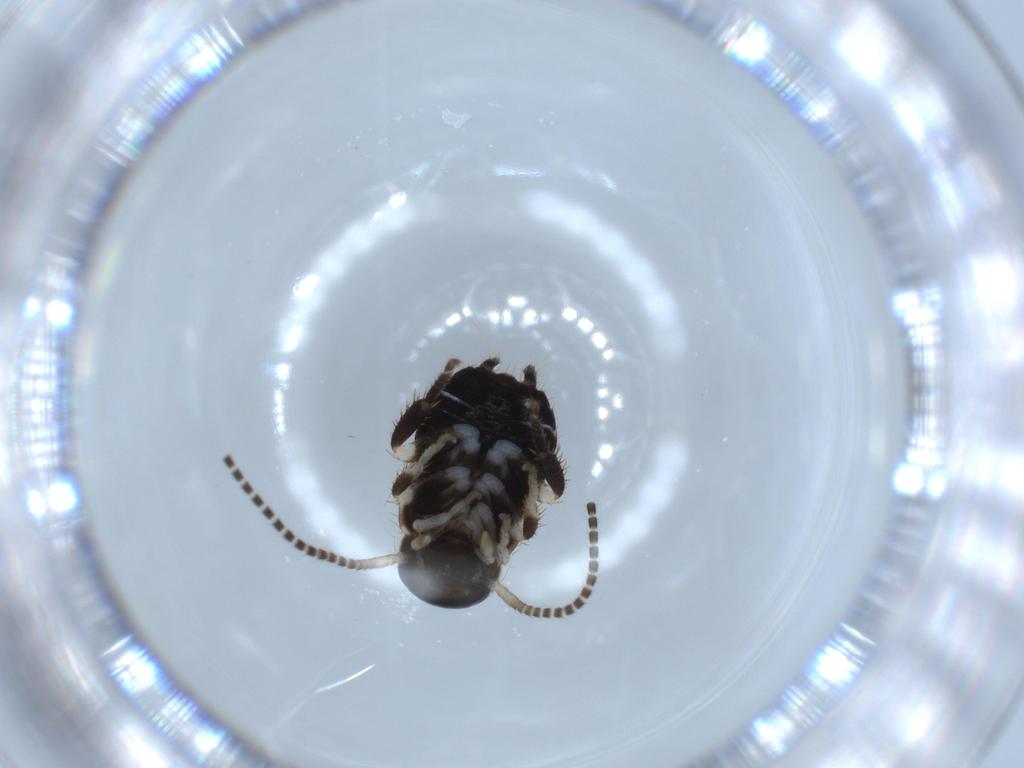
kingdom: Animalia
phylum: Arthropoda
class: Insecta
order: Blattodea
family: Ectobiidae
